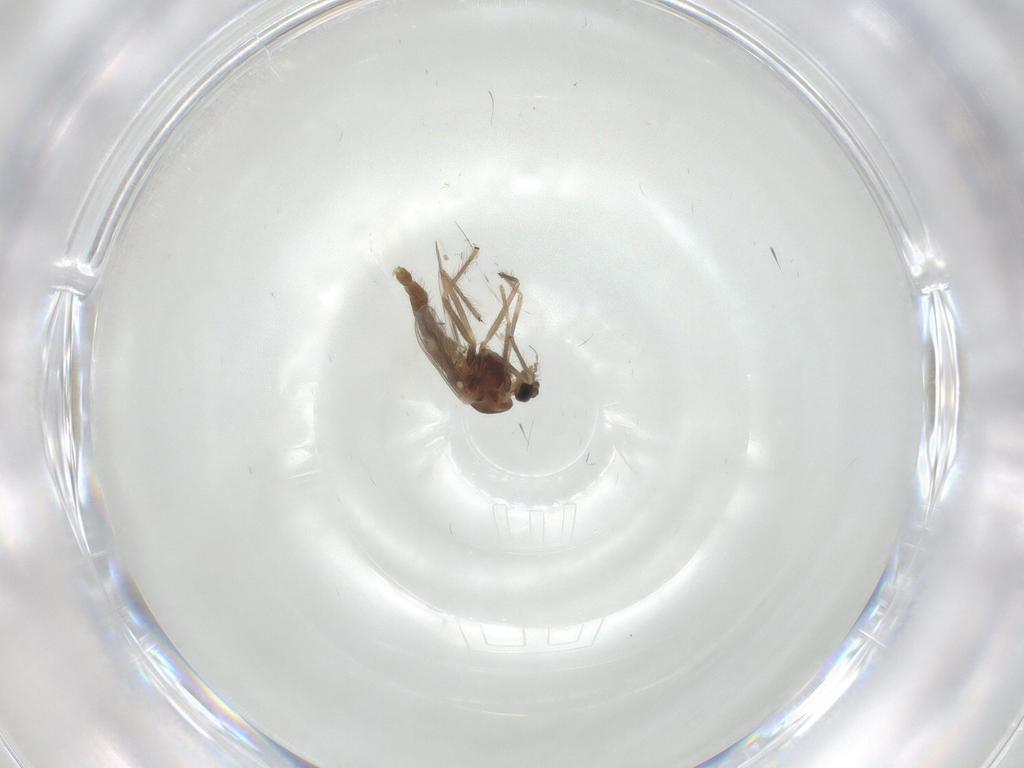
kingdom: Animalia
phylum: Arthropoda
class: Insecta
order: Diptera
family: Chironomidae
